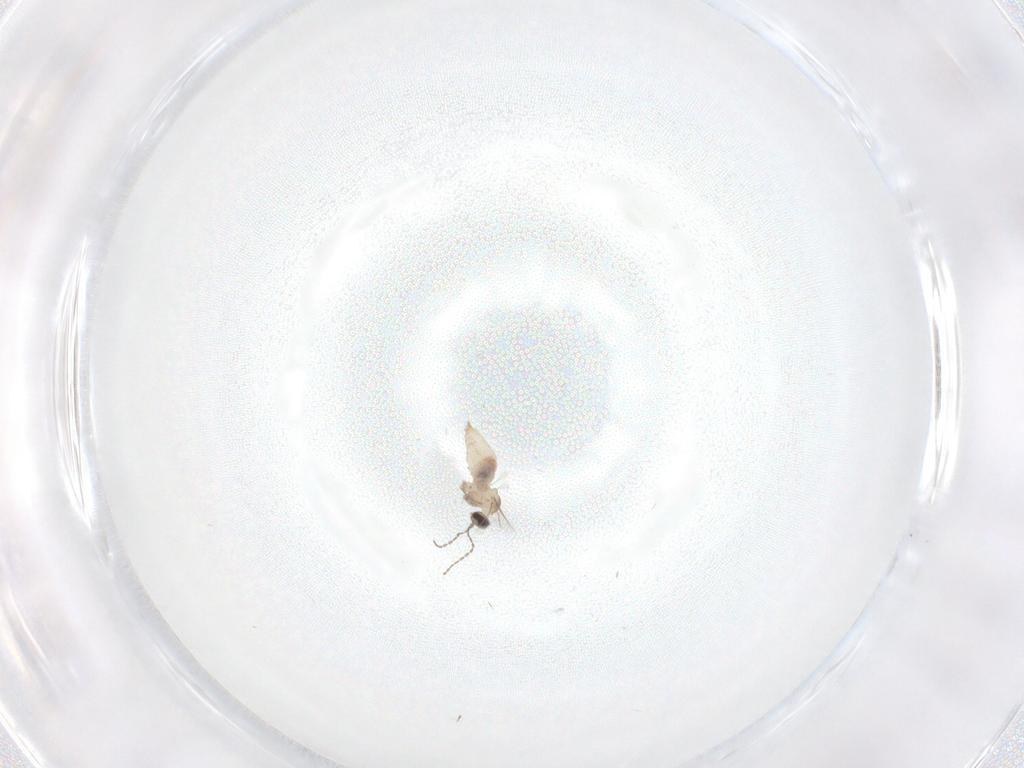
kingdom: Animalia
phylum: Arthropoda
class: Insecta
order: Diptera
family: Cecidomyiidae
